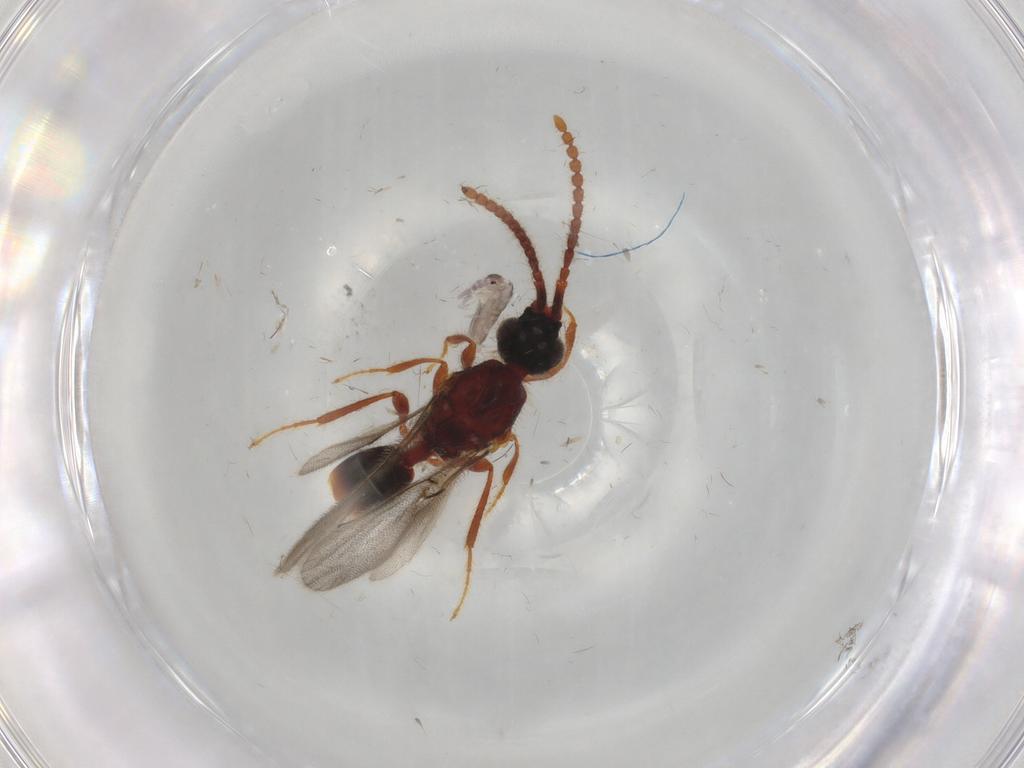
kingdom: Animalia
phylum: Arthropoda
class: Insecta
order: Hymenoptera
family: Diapriidae
